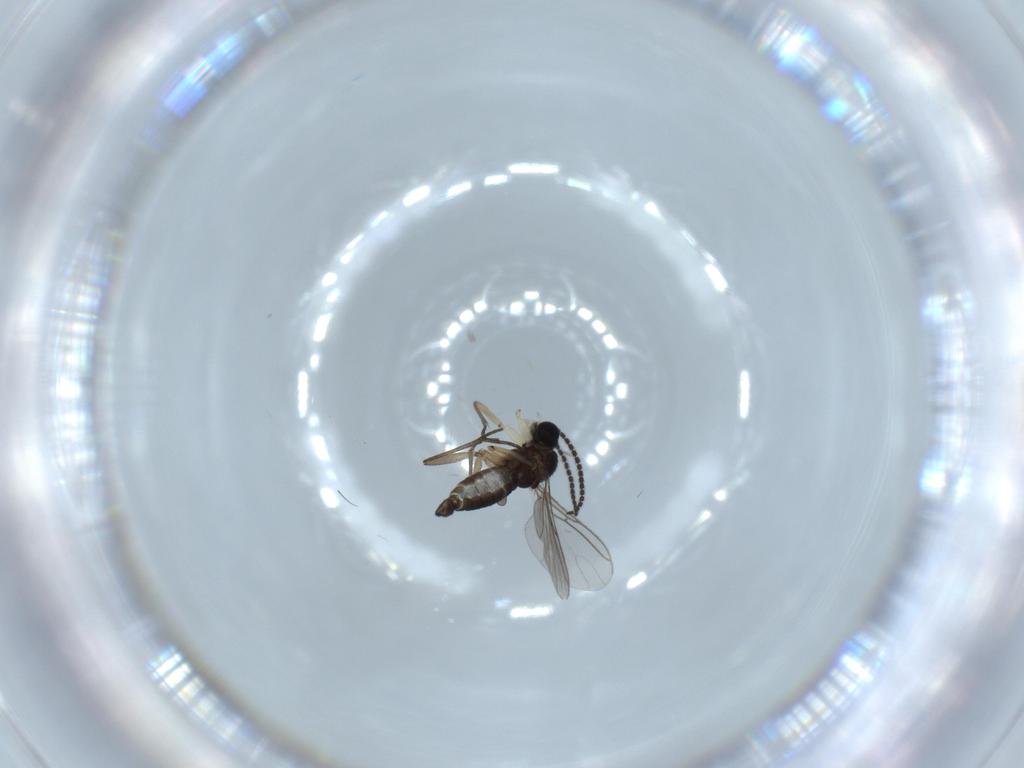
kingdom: Animalia
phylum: Arthropoda
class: Insecta
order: Diptera
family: Sciaridae
